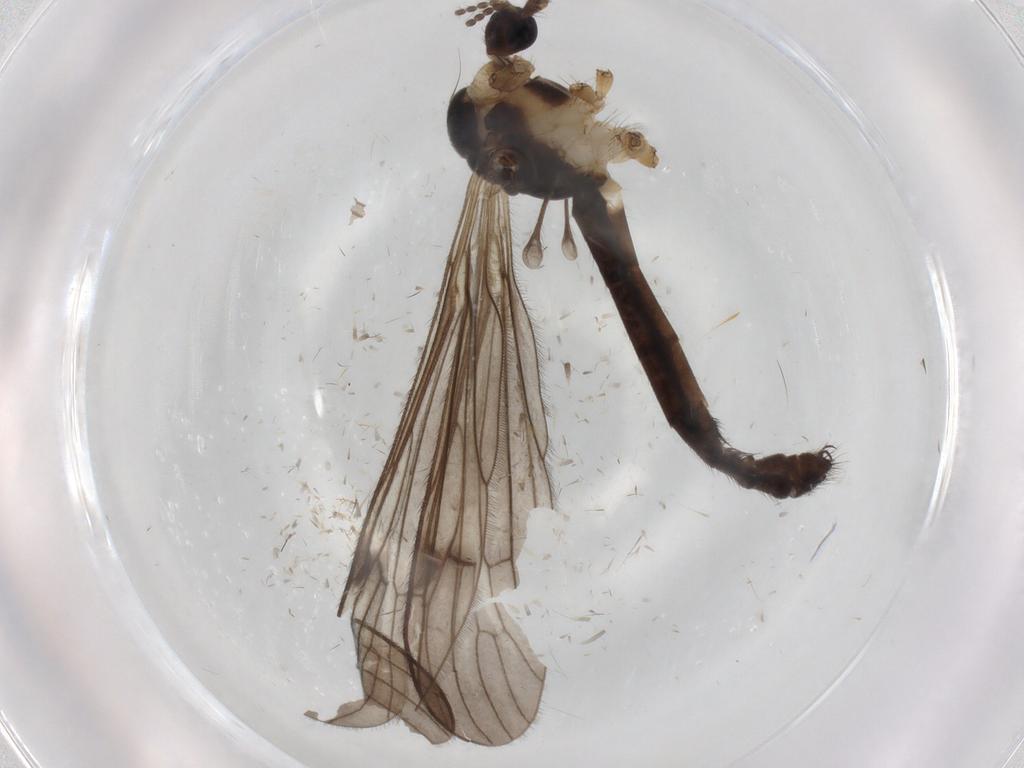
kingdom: Animalia
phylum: Arthropoda
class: Insecta
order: Diptera
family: Limoniidae
